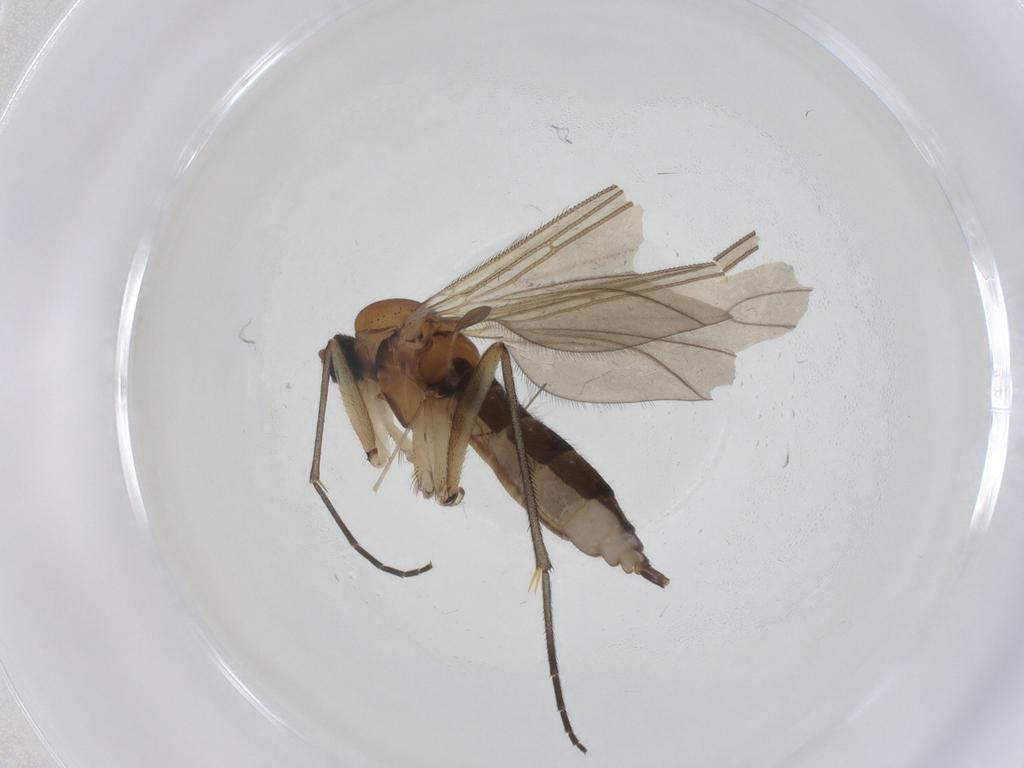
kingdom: Animalia
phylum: Arthropoda
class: Insecta
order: Diptera
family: Sciaridae
